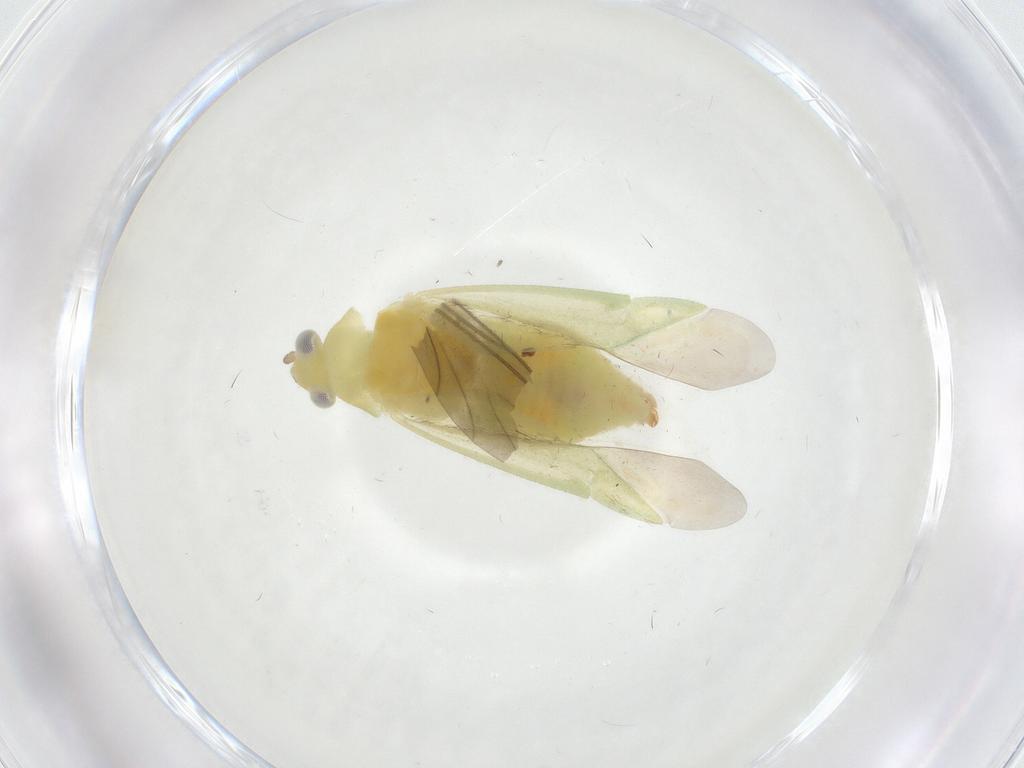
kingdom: Animalia
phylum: Arthropoda
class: Insecta
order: Hemiptera
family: Miridae
